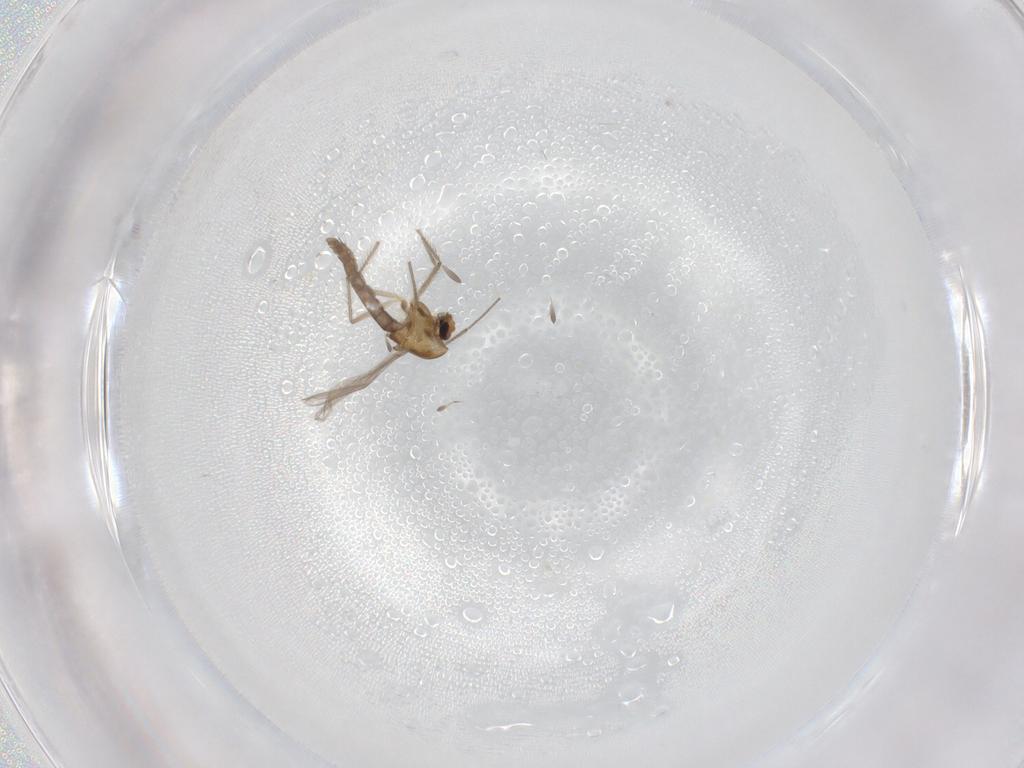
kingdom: Animalia
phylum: Arthropoda
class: Insecta
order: Diptera
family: Chironomidae
